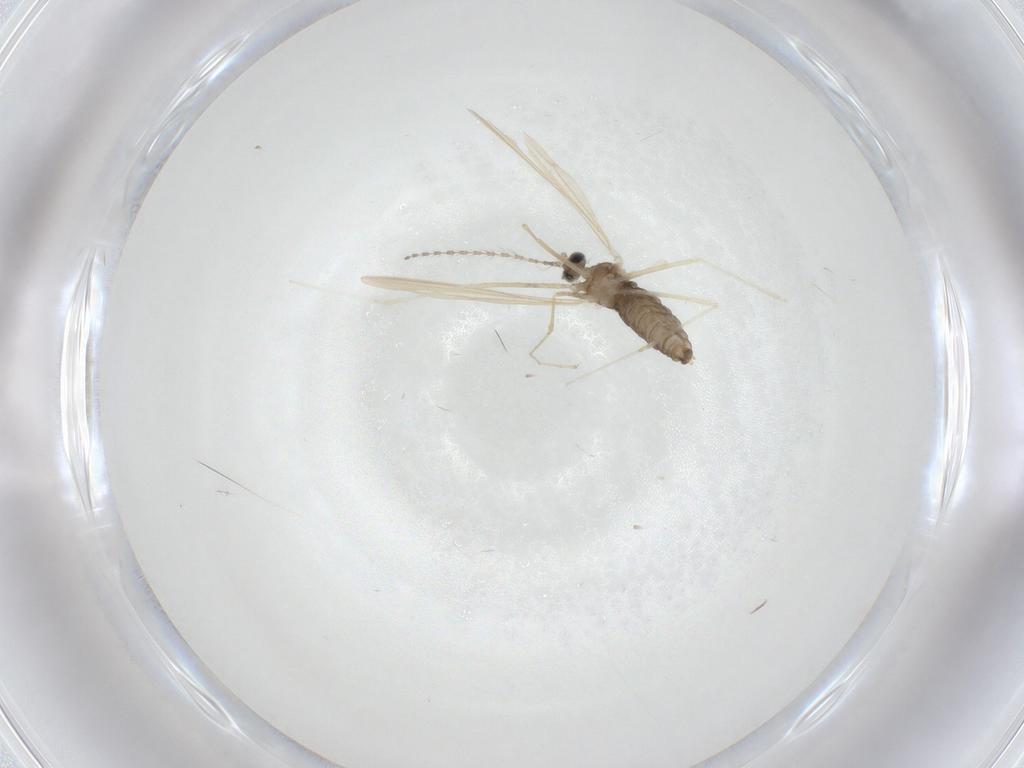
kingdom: Animalia
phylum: Arthropoda
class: Insecta
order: Diptera
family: Cecidomyiidae
